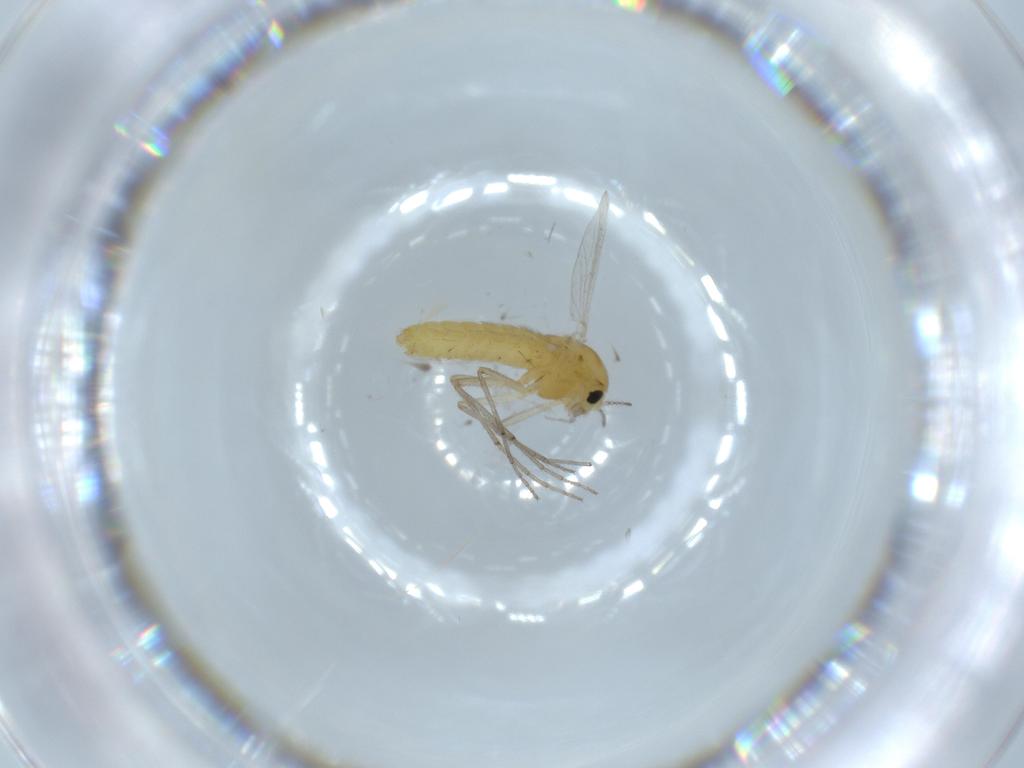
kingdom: Animalia
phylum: Arthropoda
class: Insecta
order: Diptera
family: Chironomidae
